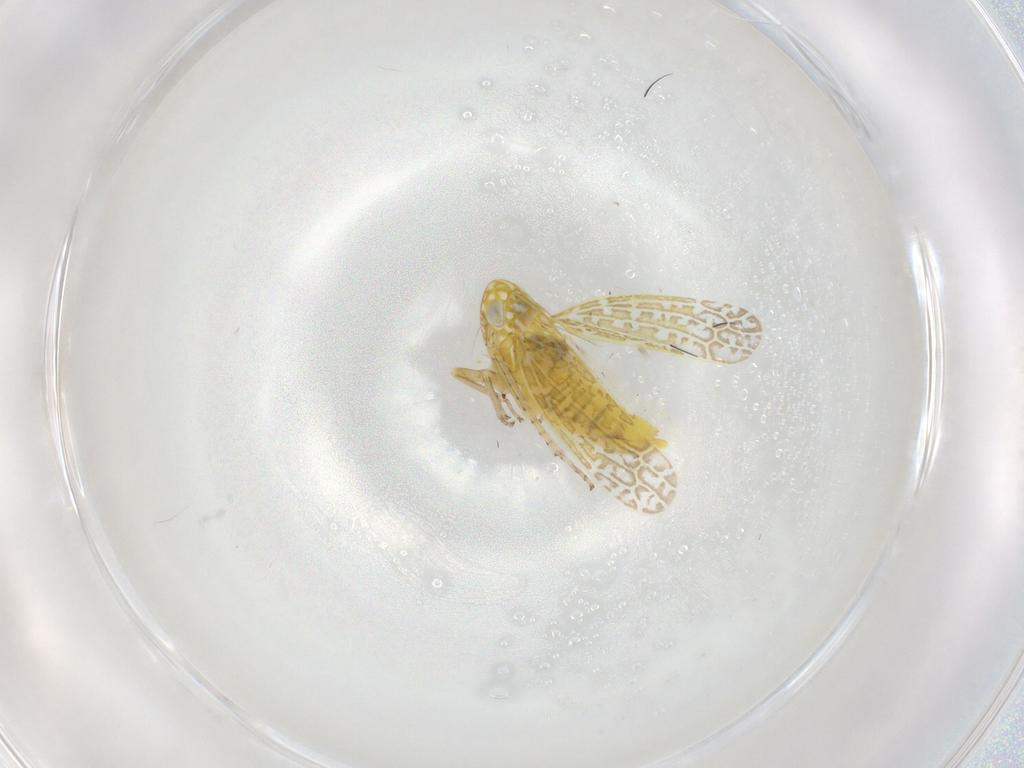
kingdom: Animalia
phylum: Arthropoda
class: Insecta
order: Hemiptera
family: Cicadellidae
